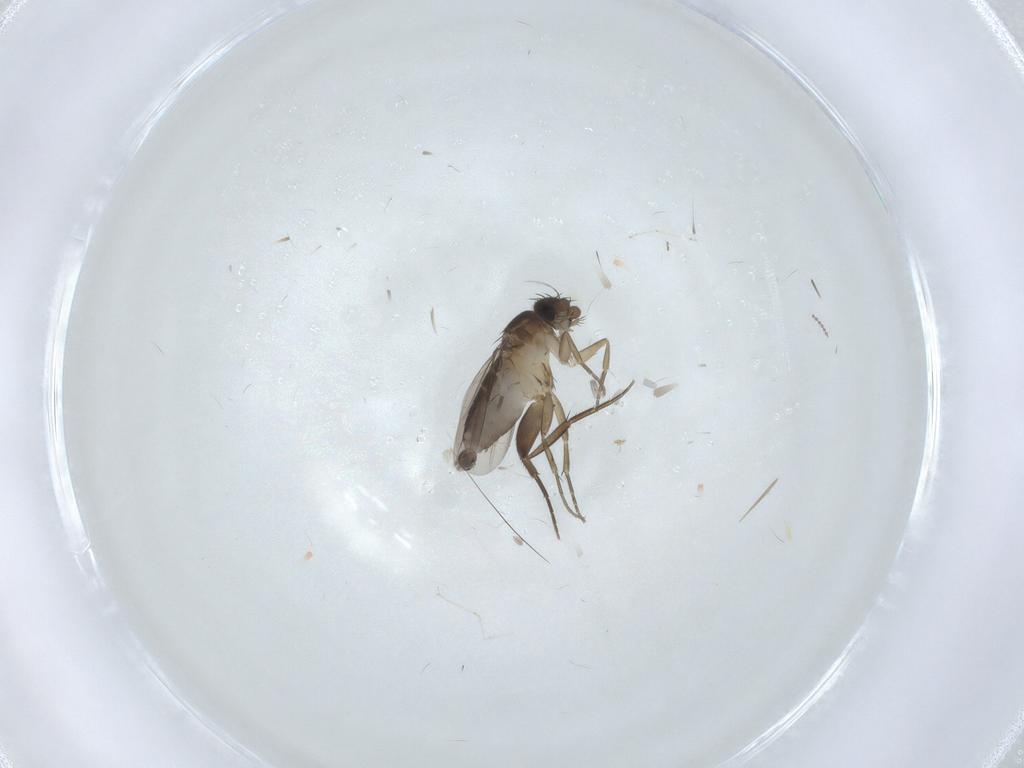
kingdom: Animalia
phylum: Arthropoda
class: Insecta
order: Diptera
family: Phoridae
